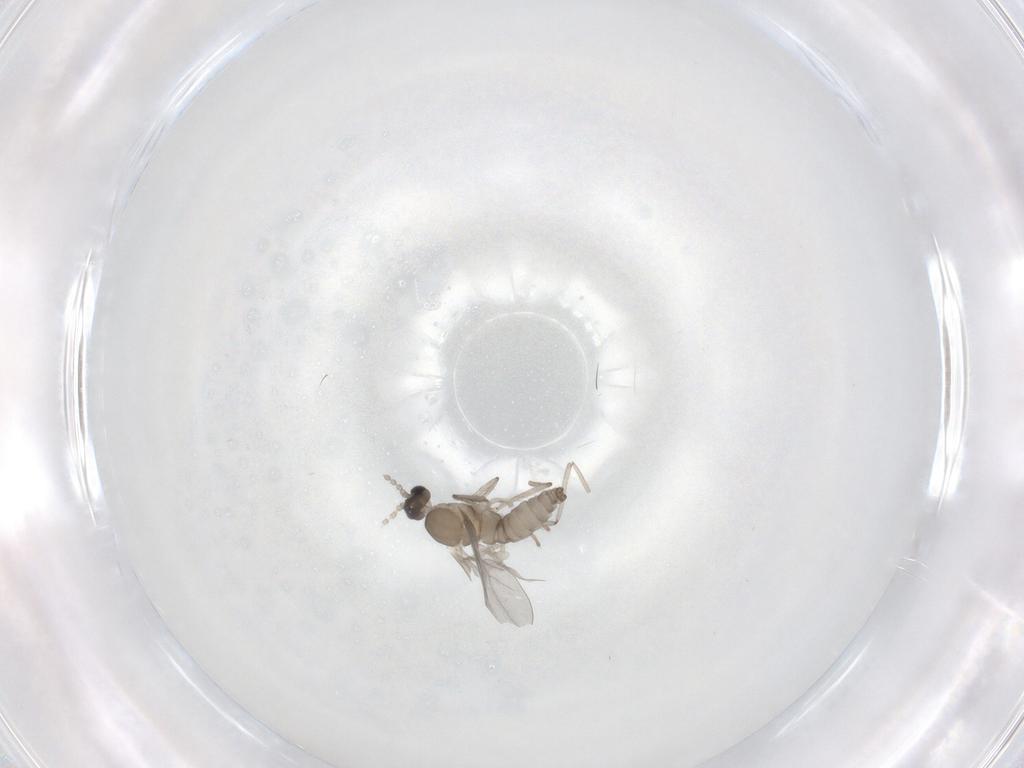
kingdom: Animalia
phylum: Arthropoda
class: Insecta
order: Diptera
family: Cecidomyiidae
